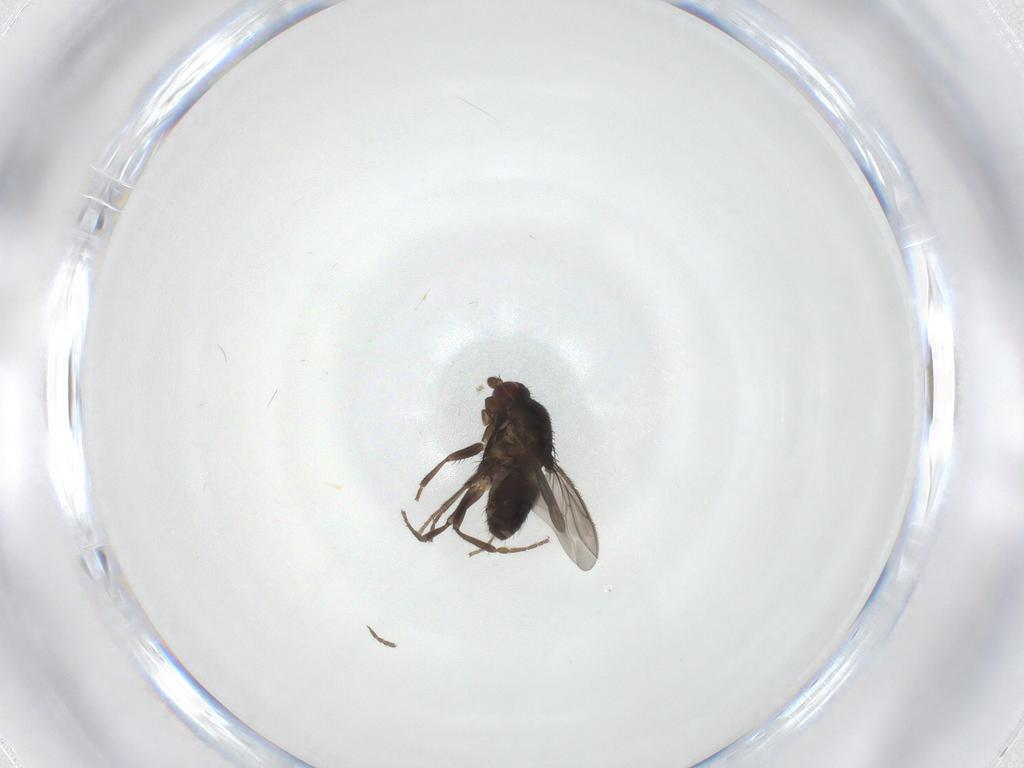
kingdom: Animalia
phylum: Arthropoda
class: Insecta
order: Diptera
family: Sphaeroceridae
